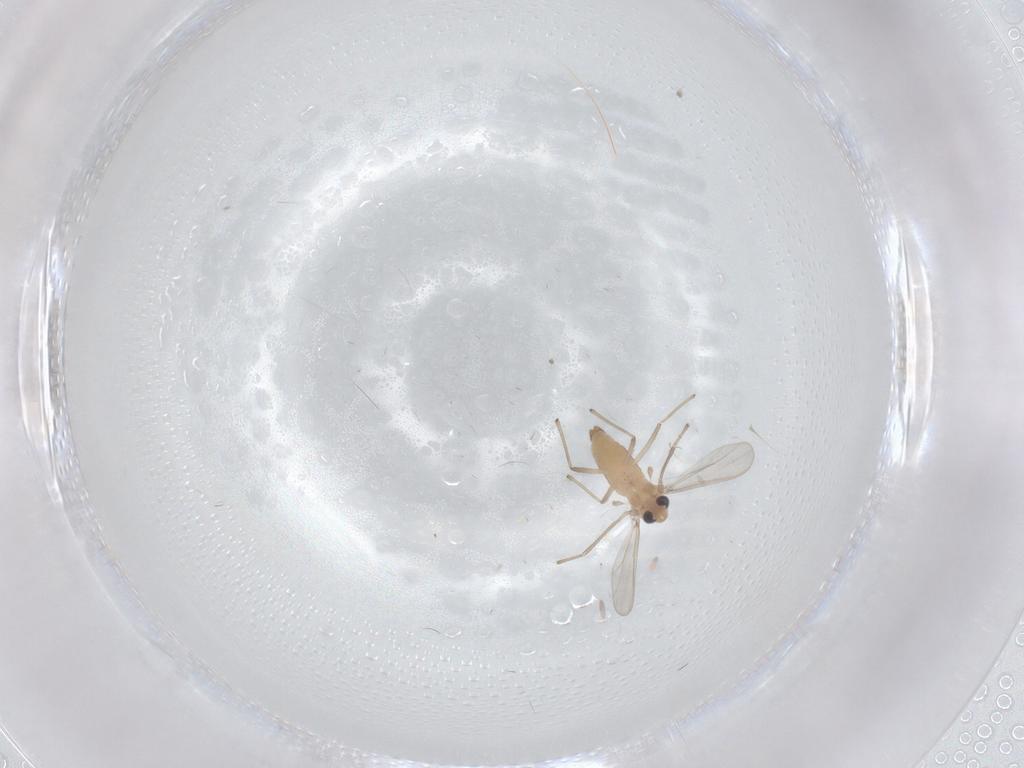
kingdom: Animalia
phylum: Arthropoda
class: Insecta
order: Diptera
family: Chironomidae
